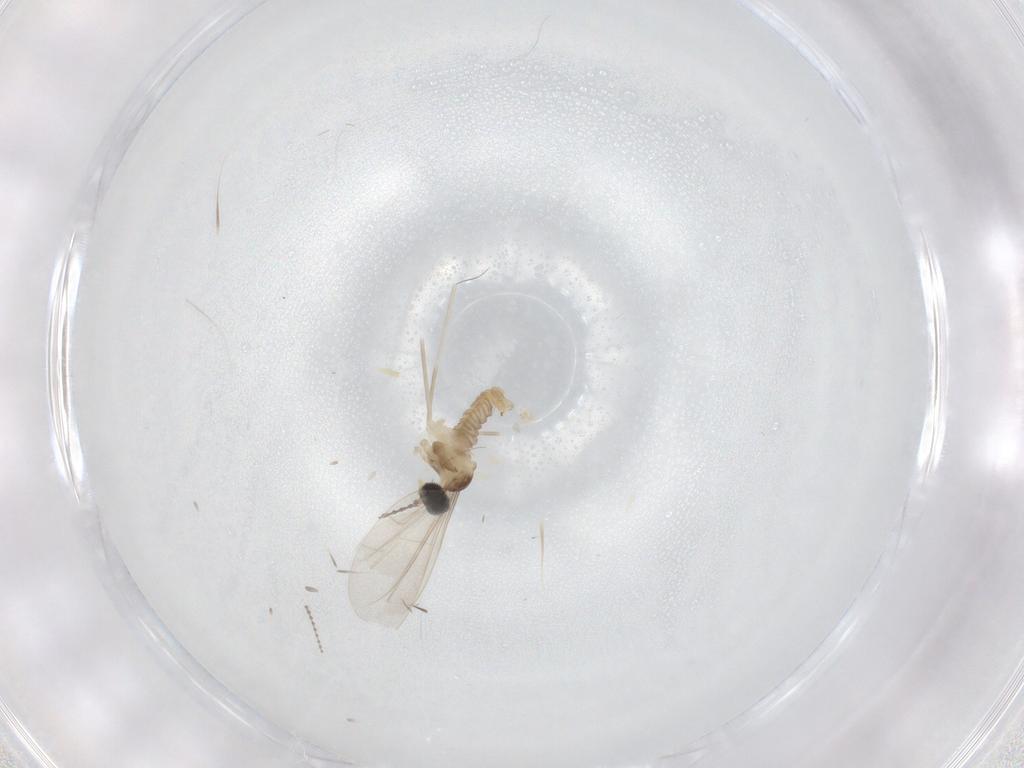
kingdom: Animalia
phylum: Arthropoda
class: Insecta
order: Diptera
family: Cecidomyiidae
